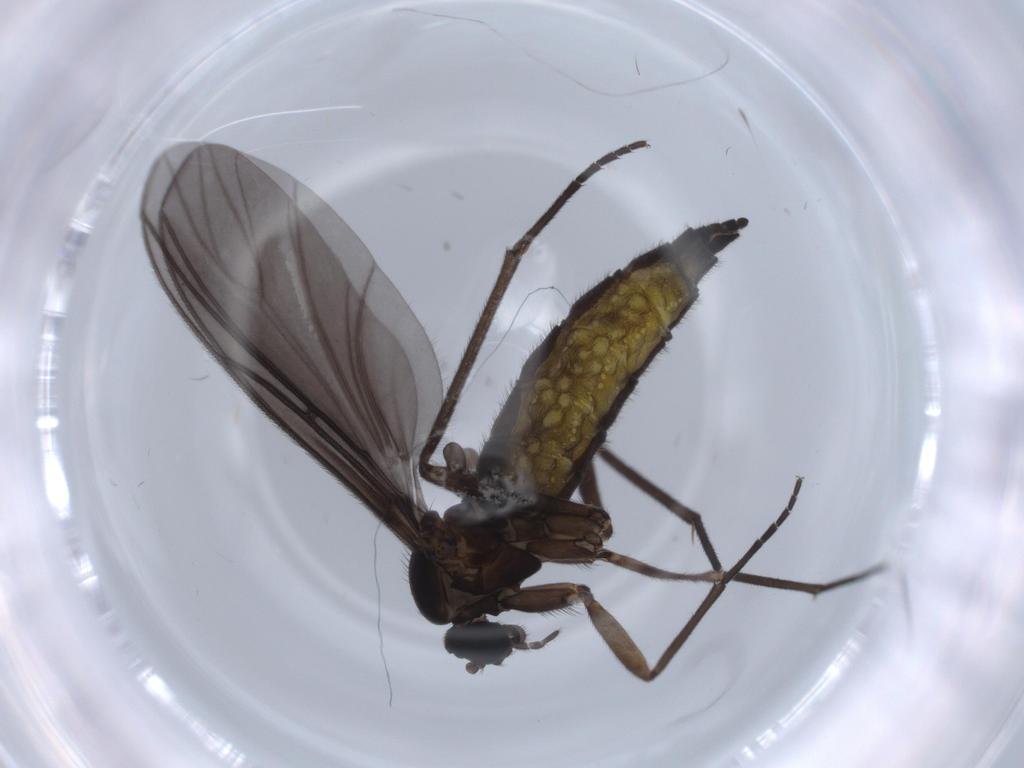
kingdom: Animalia
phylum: Arthropoda
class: Insecta
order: Diptera
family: Sciaridae
